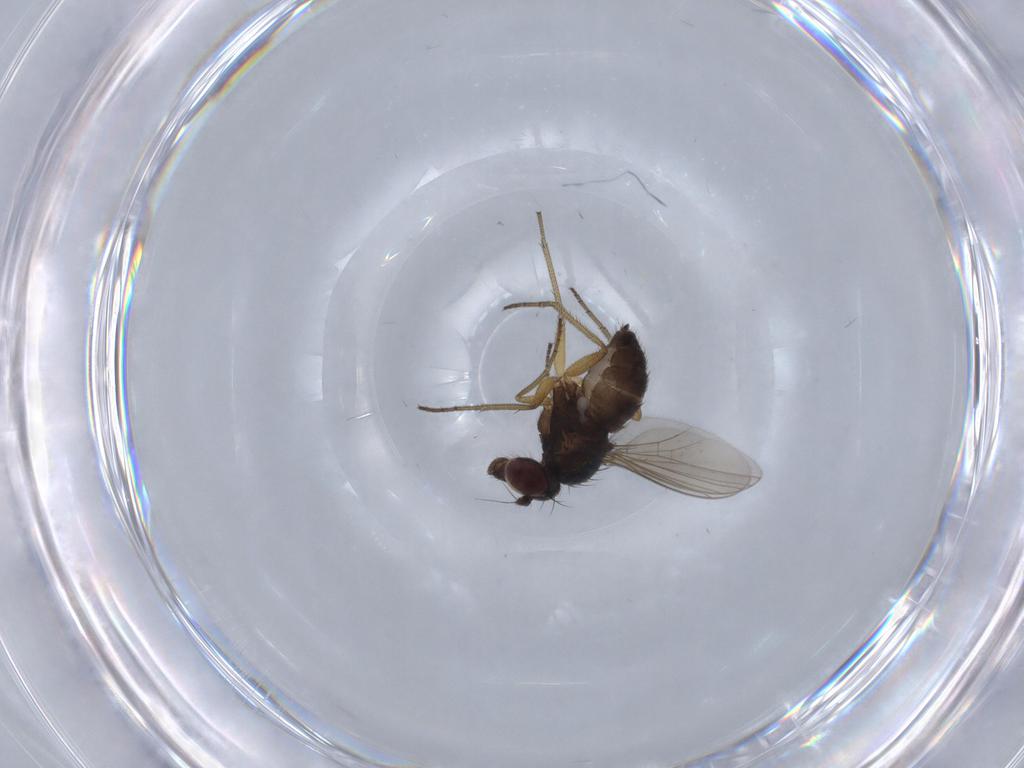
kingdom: Animalia
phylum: Arthropoda
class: Insecta
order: Diptera
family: Dolichopodidae
